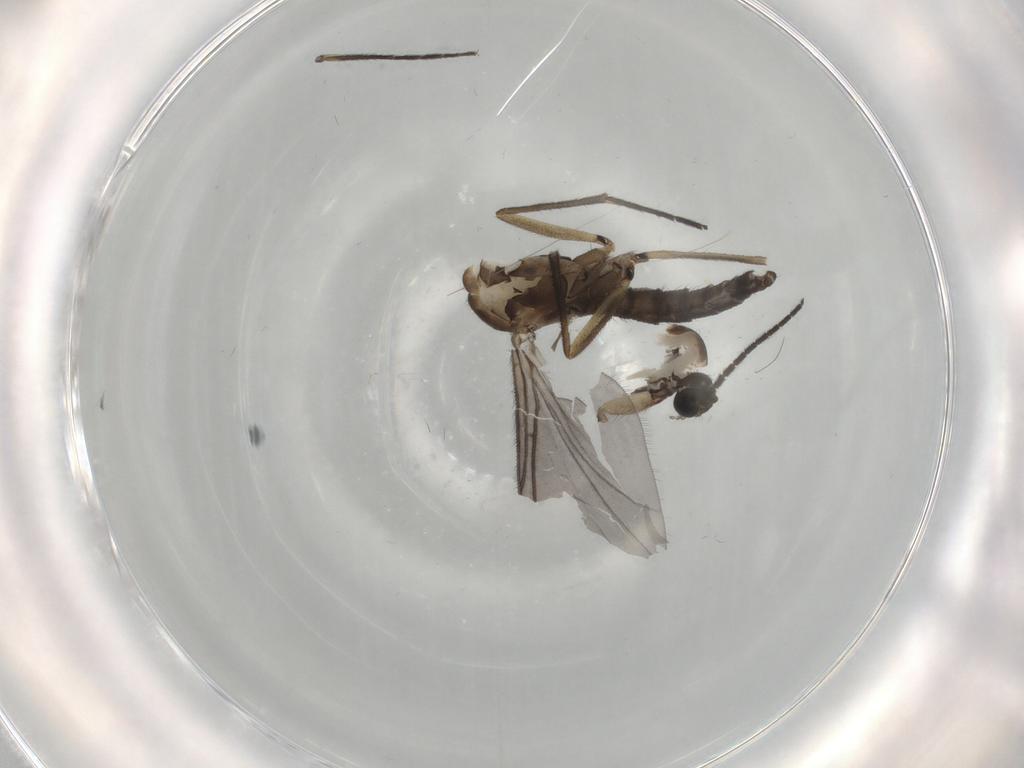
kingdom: Animalia
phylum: Arthropoda
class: Insecta
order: Diptera
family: Sciaridae
